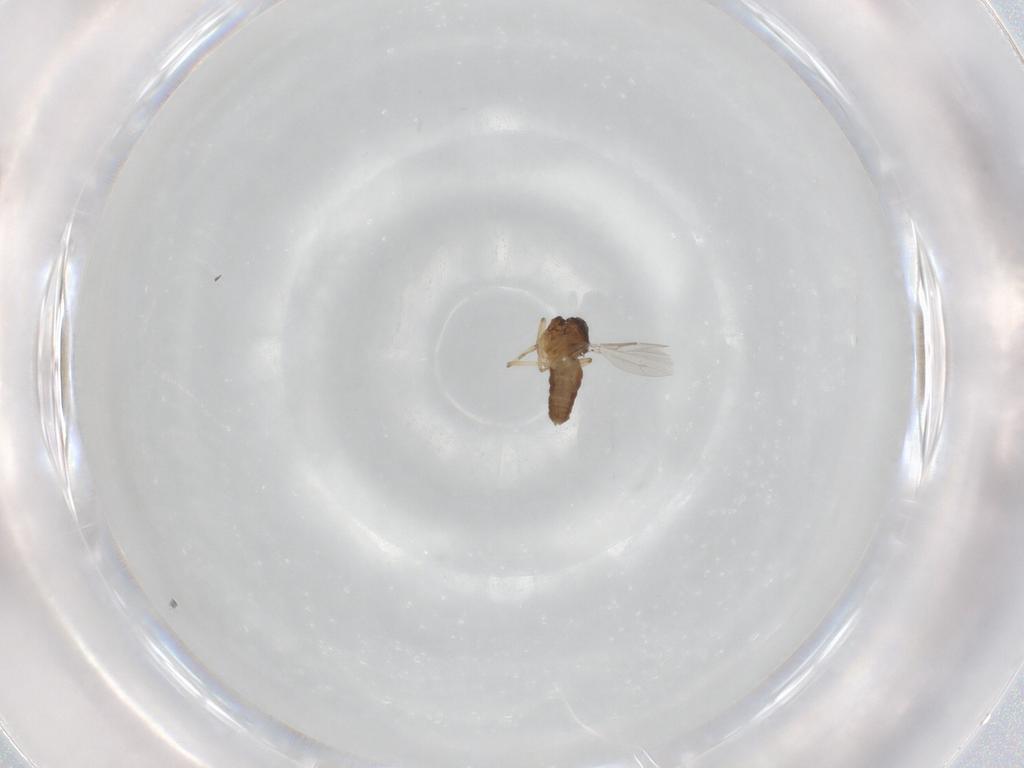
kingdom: Animalia
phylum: Arthropoda
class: Insecta
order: Diptera
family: Ceratopogonidae
